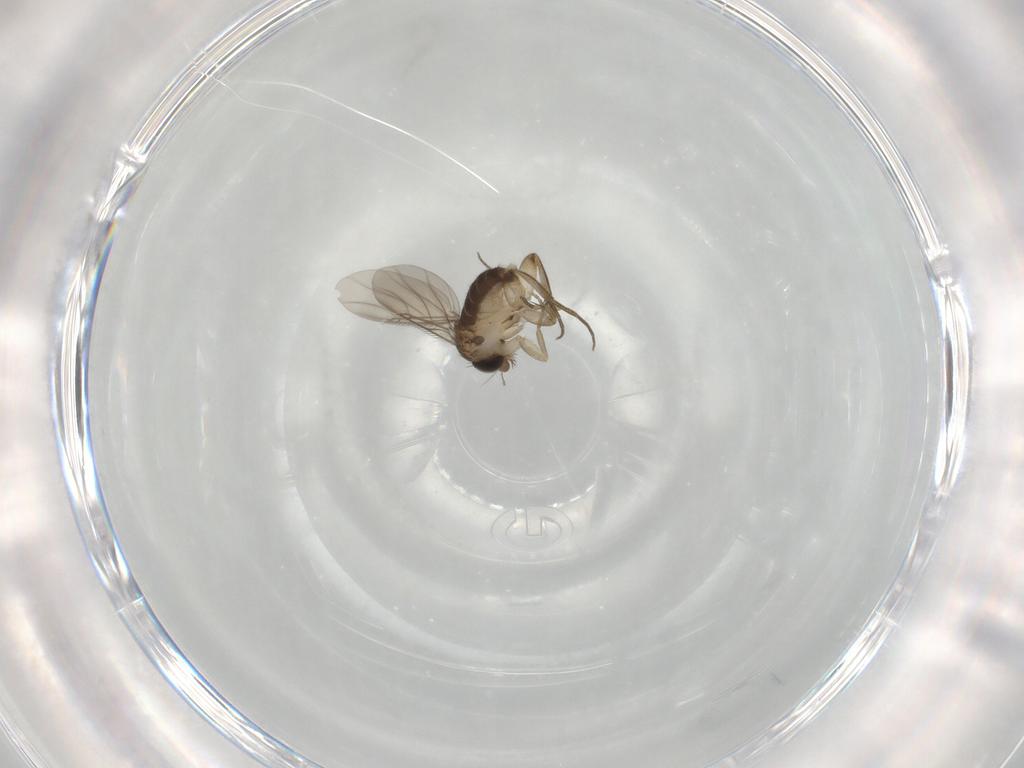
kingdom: Animalia
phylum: Arthropoda
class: Insecta
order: Diptera
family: Phoridae
